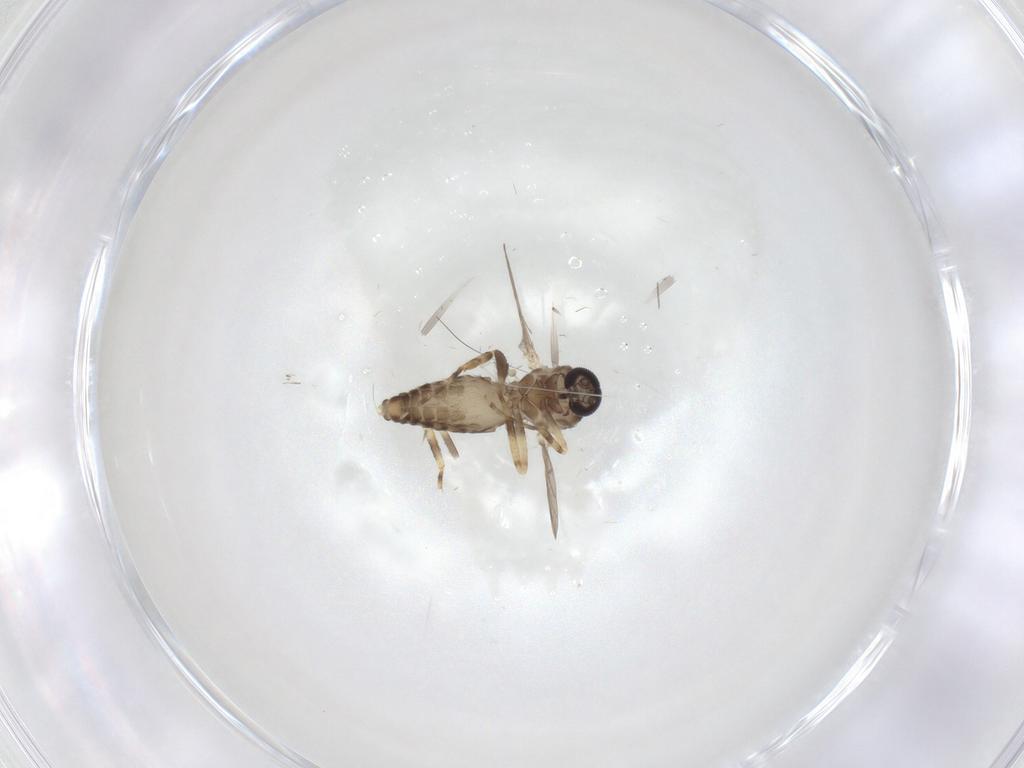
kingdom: Animalia
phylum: Arthropoda
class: Insecta
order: Diptera
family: Ceratopogonidae
